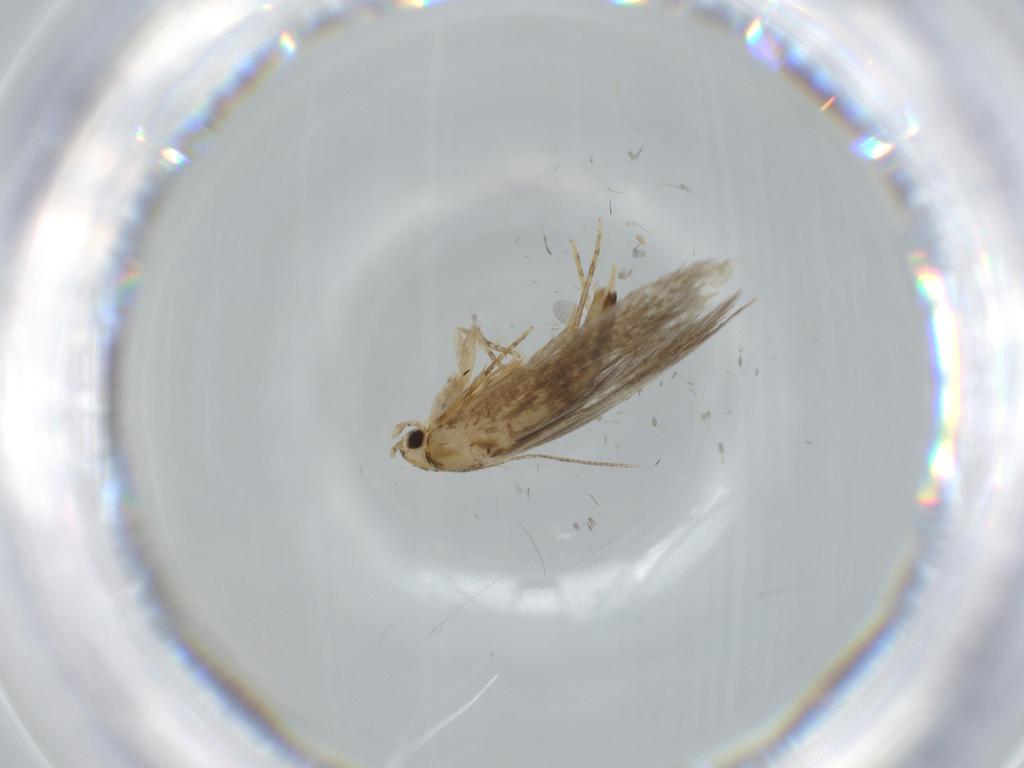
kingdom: Animalia
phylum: Arthropoda
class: Insecta
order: Lepidoptera
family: Tineidae
